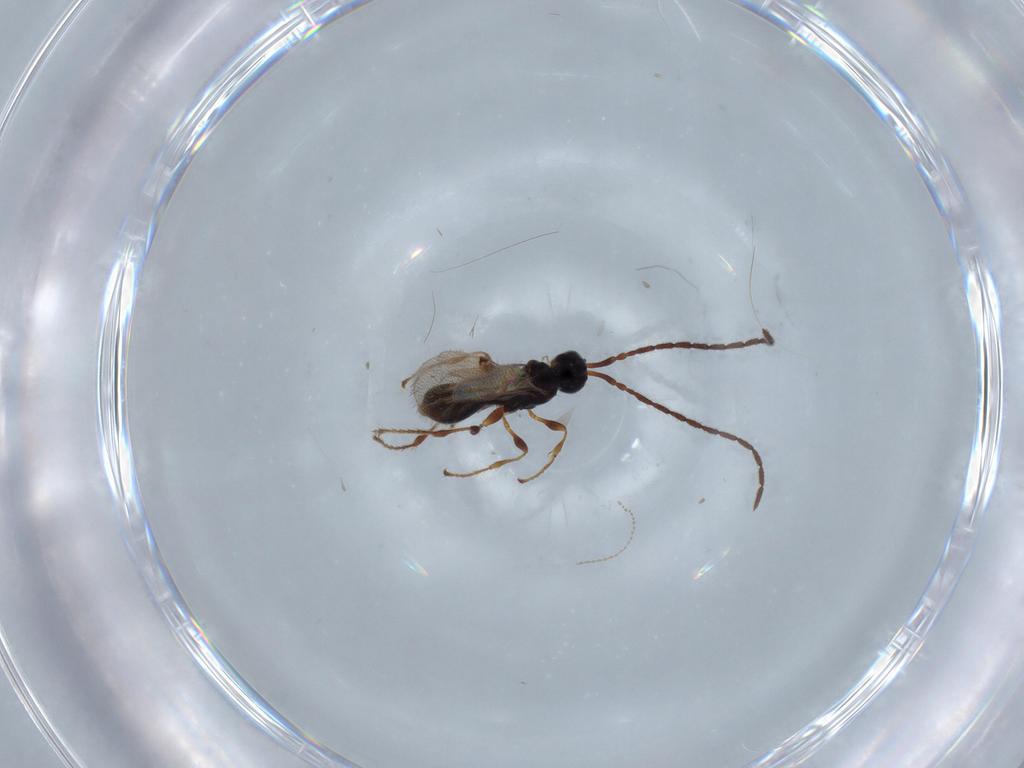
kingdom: Animalia
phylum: Arthropoda
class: Insecta
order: Hymenoptera
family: Diapriidae
